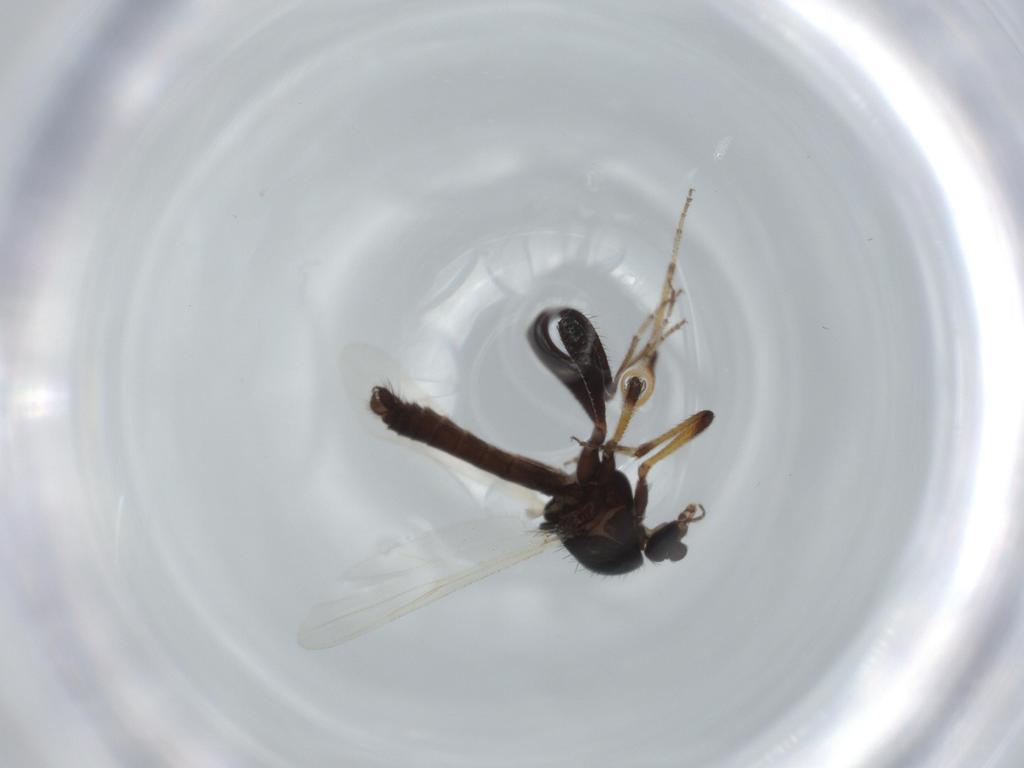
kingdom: Animalia
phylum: Arthropoda
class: Insecta
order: Diptera
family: Ceratopogonidae
